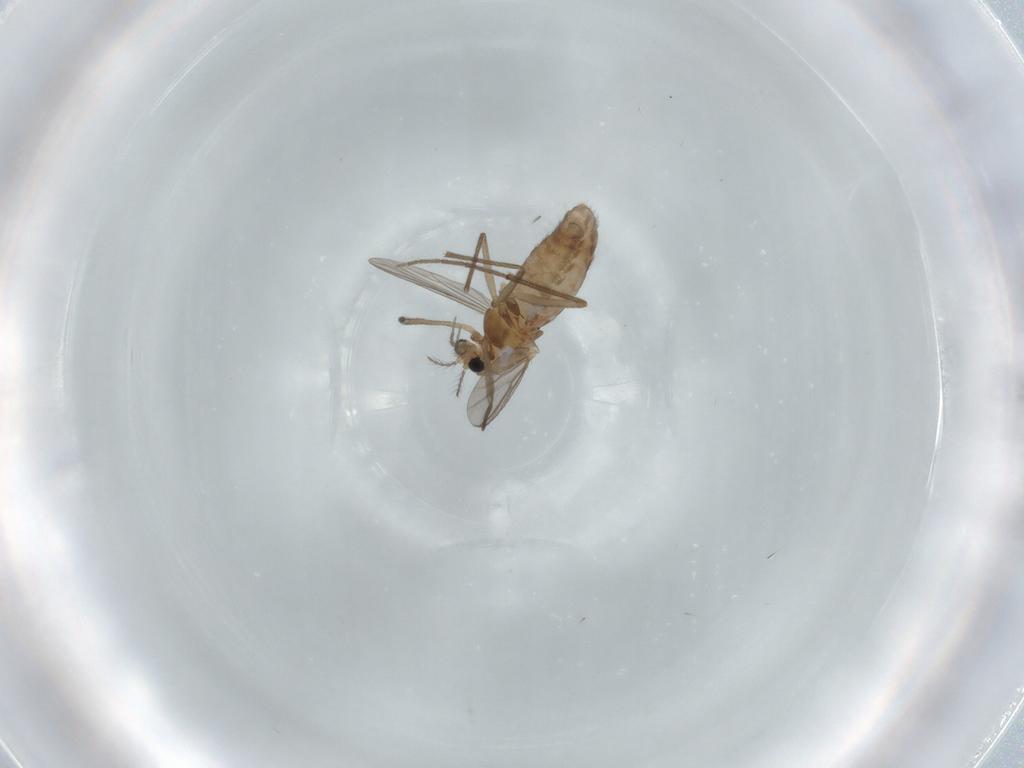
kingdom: Animalia
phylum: Arthropoda
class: Insecta
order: Diptera
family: Chironomidae
